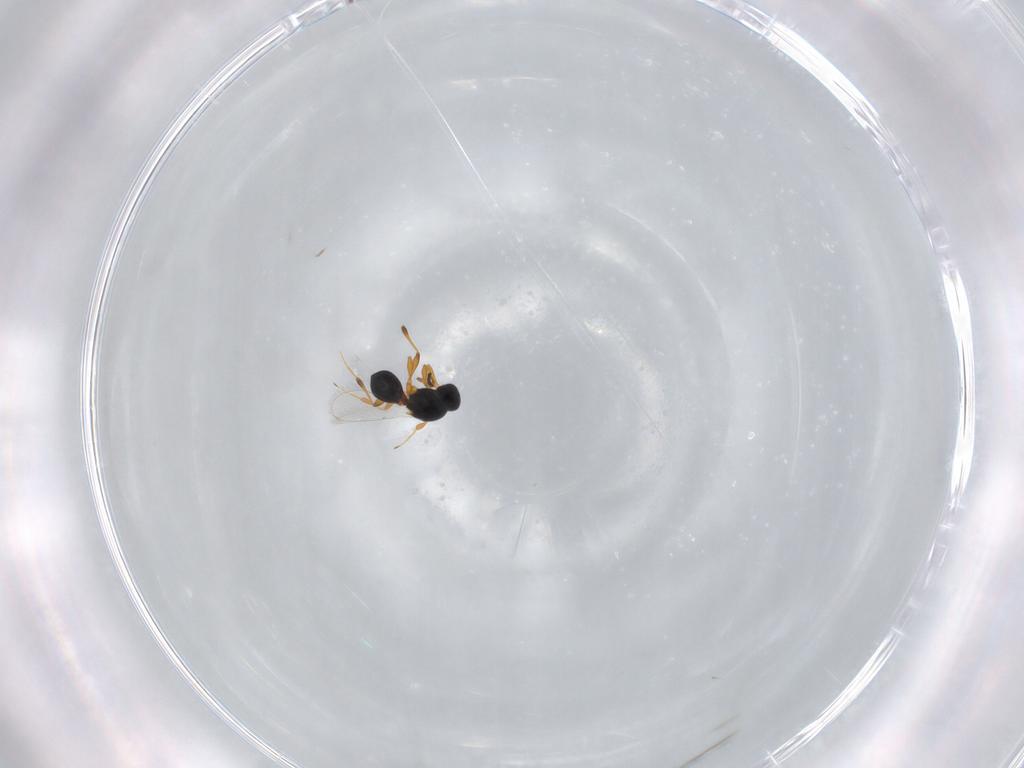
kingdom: Animalia
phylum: Arthropoda
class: Insecta
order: Hymenoptera
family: Platygastridae
